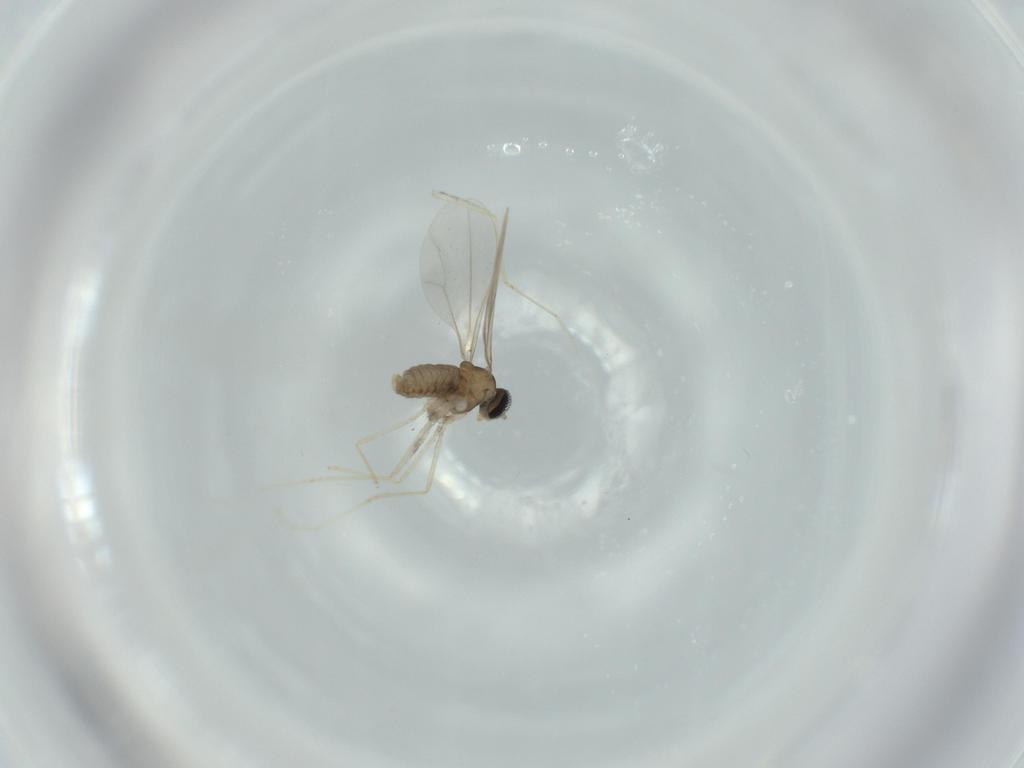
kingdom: Animalia
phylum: Arthropoda
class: Insecta
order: Diptera
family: Cecidomyiidae
